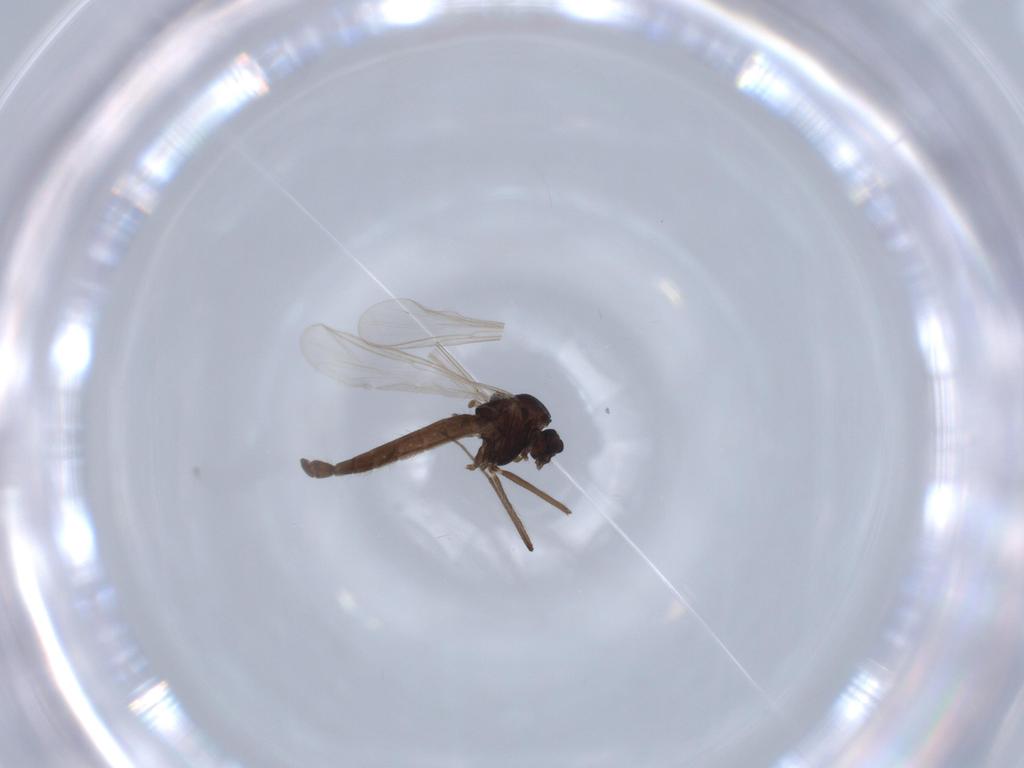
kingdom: Animalia
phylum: Arthropoda
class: Insecta
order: Diptera
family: Chironomidae
